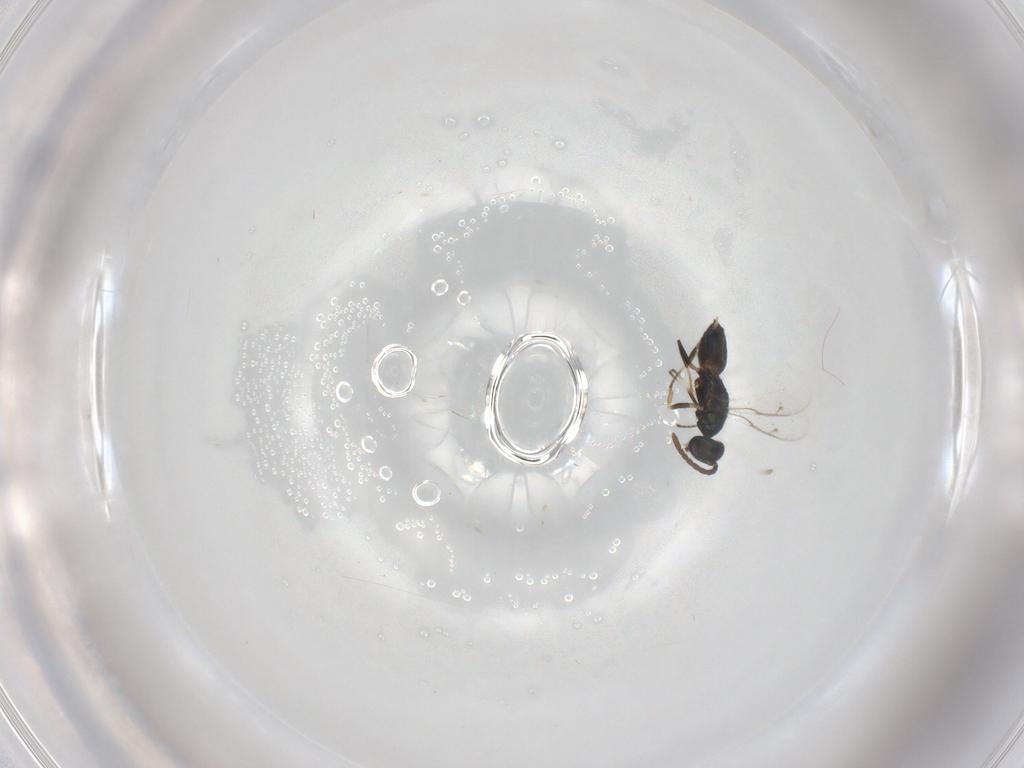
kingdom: Animalia
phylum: Arthropoda
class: Insecta
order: Hymenoptera
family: Eupelmidae
